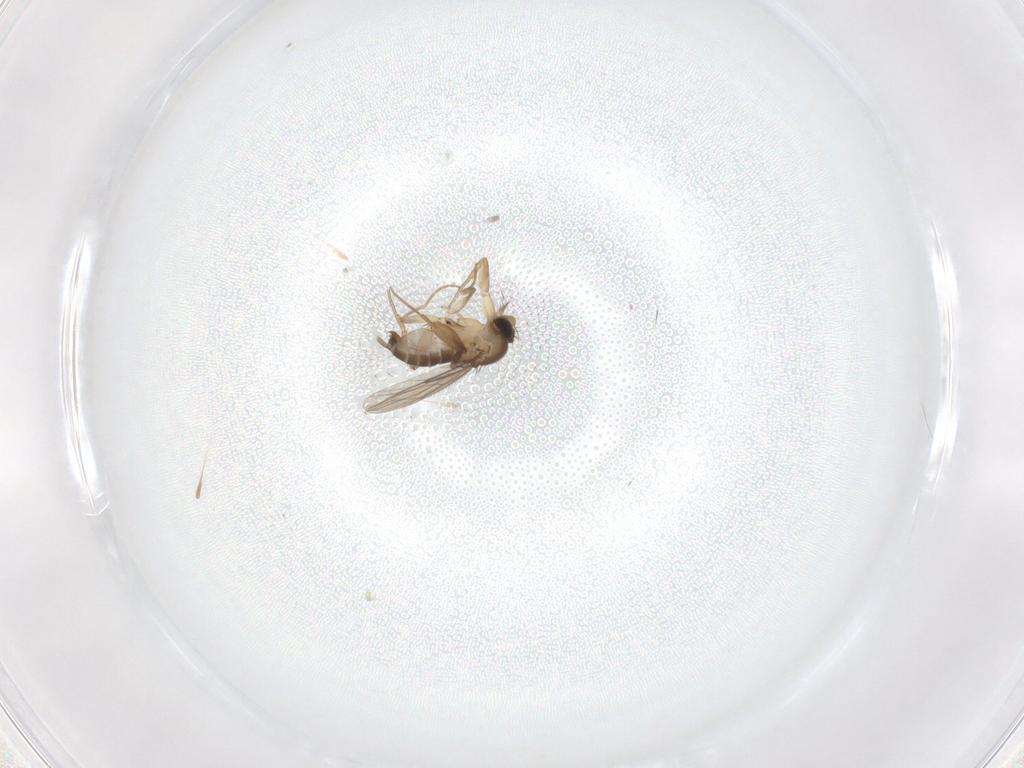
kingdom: Animalia
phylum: Arthropoda
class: Insecta
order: Diptera
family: Phoridae
